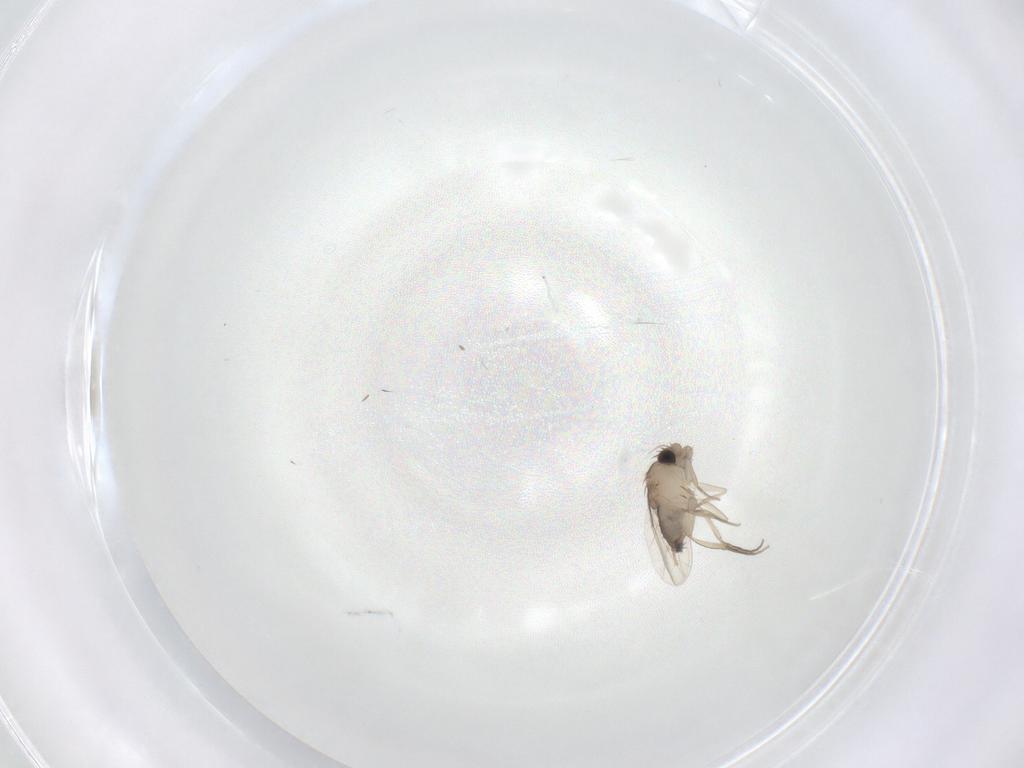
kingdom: Animalia
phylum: Arthropoda
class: Insecta
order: Diptera
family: Phoridae
